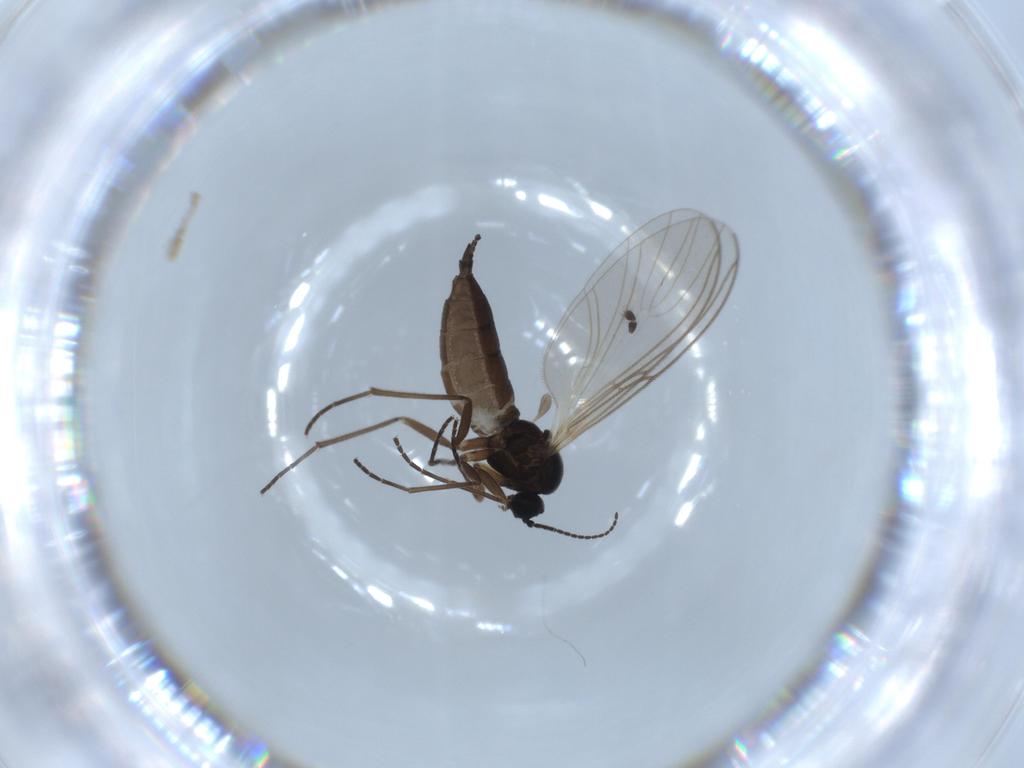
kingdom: Animalia
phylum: Arthropoda
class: Insecta
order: Diptera
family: Limoniidae
